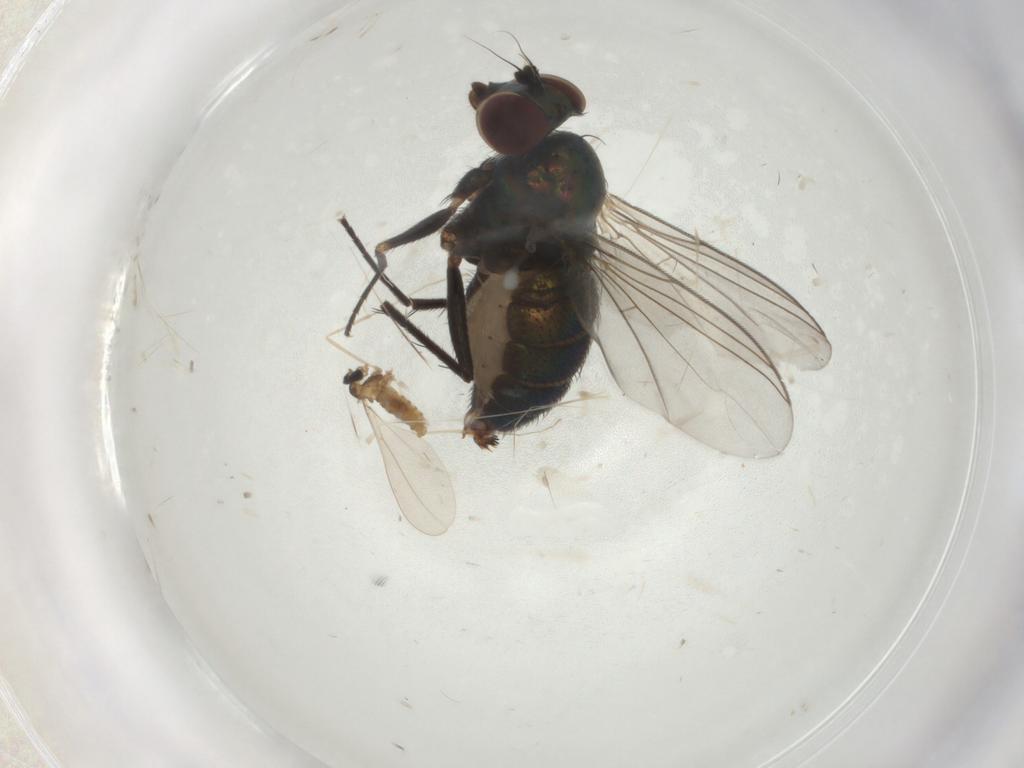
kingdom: Animalia
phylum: Arthropoda
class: Insecta
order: Diptera
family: Dolichopodidae
